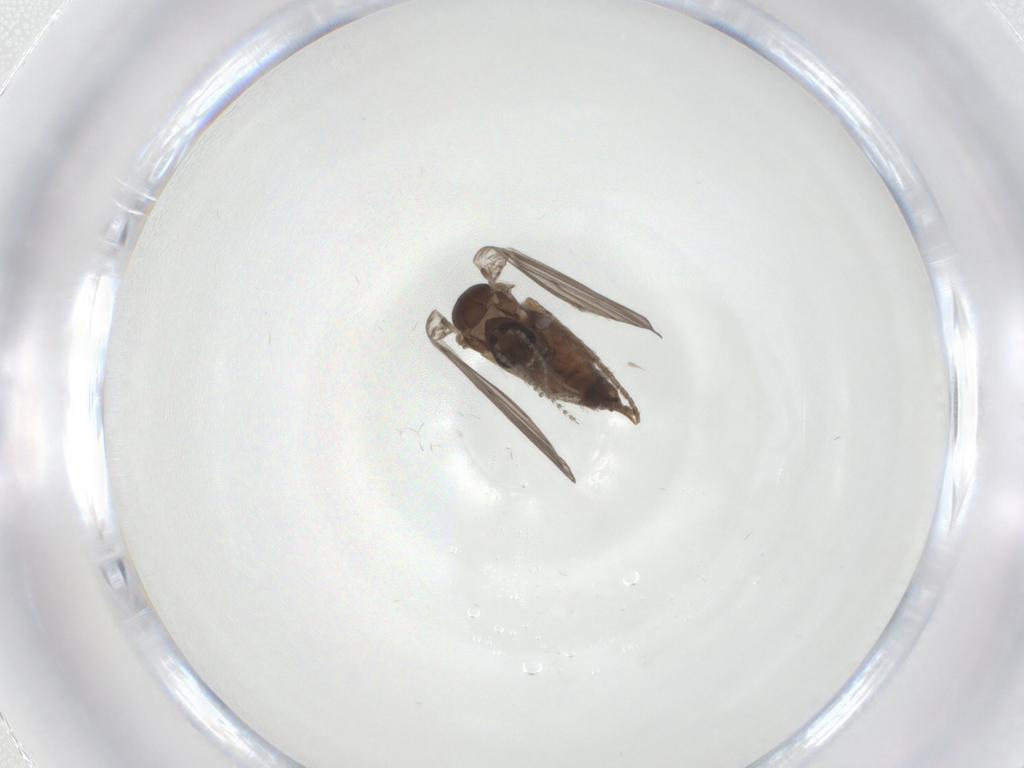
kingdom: Animalia
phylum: Arthropoda
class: Insecta
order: Diptera
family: Psychodidae
